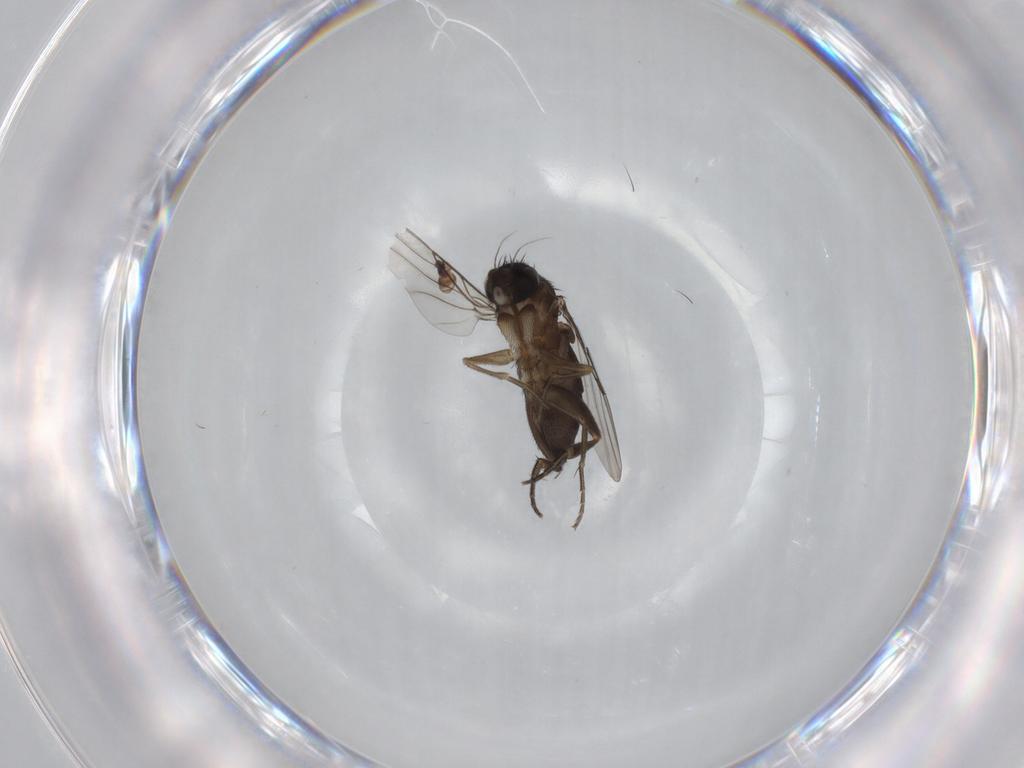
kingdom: Animalia
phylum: Arthropoda
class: Insecta
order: Diptera
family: Phoridae
